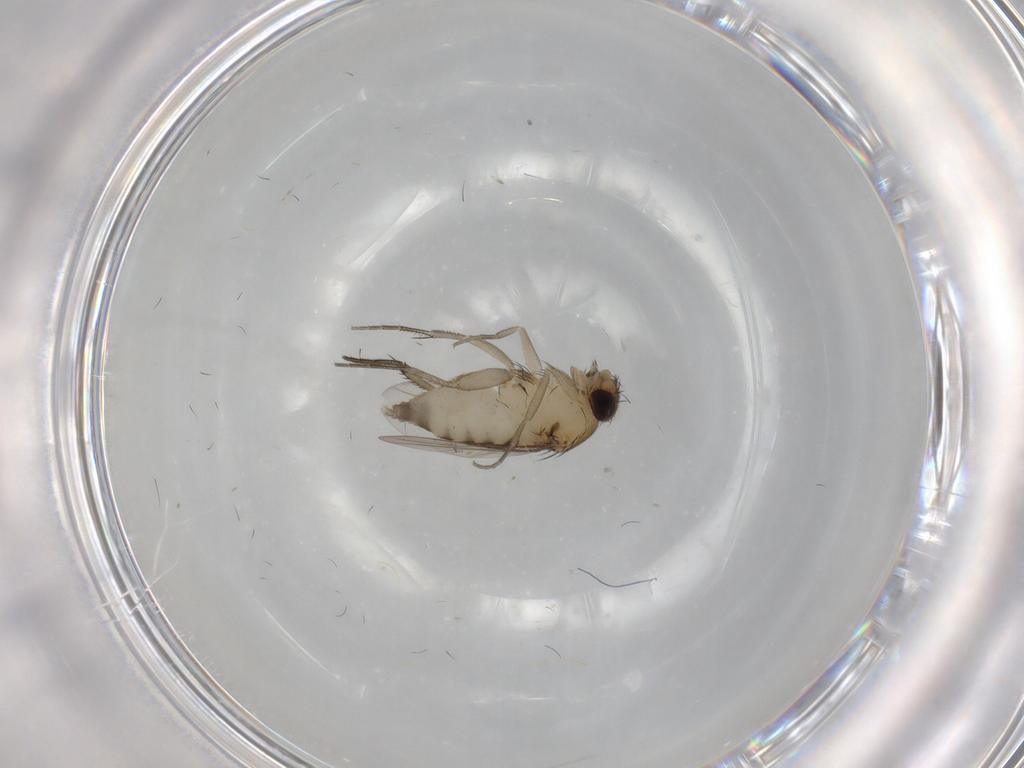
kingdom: Animalia
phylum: Arthropoda
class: Insecta
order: Diptera
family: Phoridae
